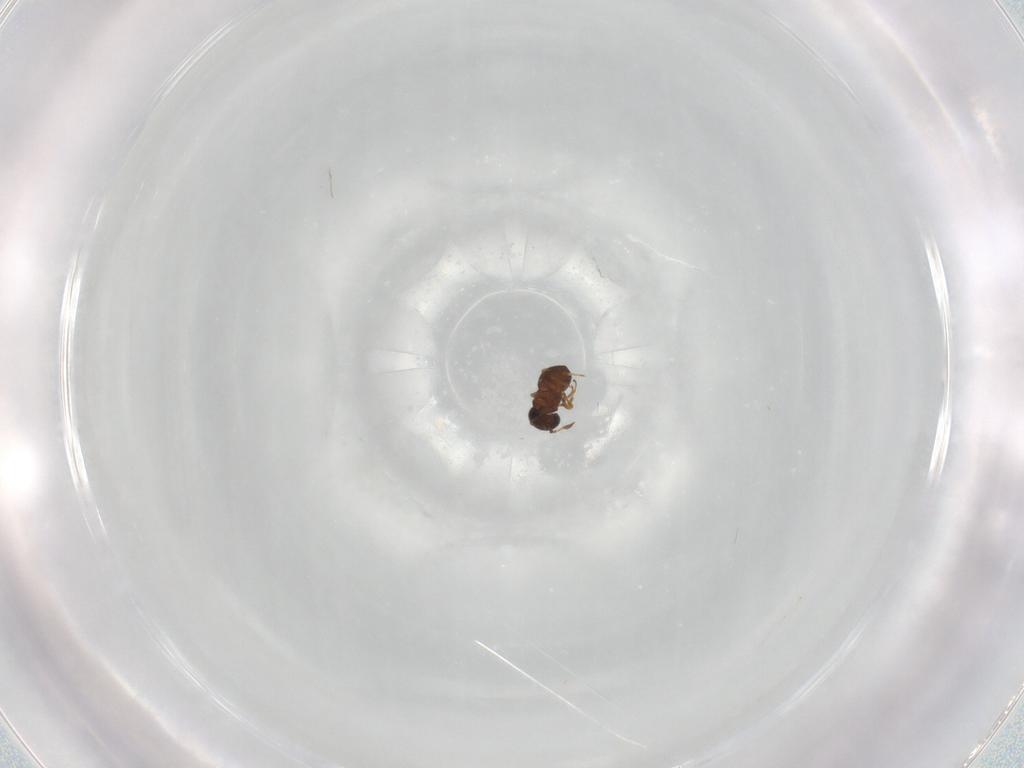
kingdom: Animalia
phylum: Arthropoda
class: Insecta
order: Hymenoptera
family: Scelionidae
